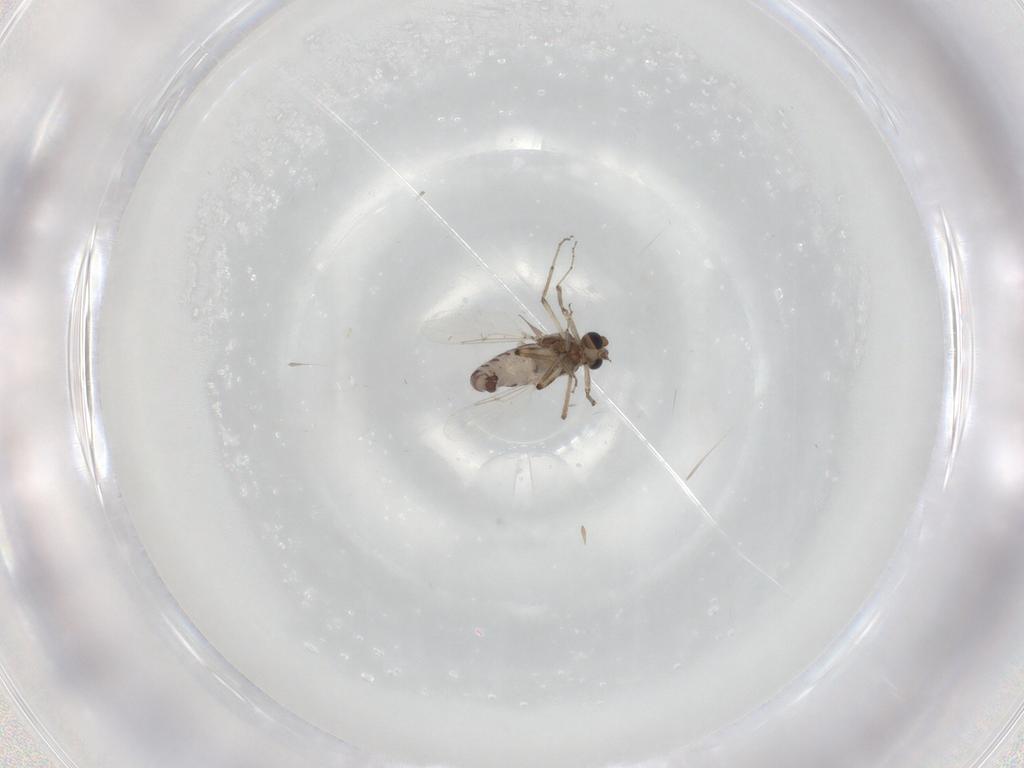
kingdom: Animalia
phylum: Arthropoda
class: Insecta
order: Diptera
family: Ceratopogonidae
